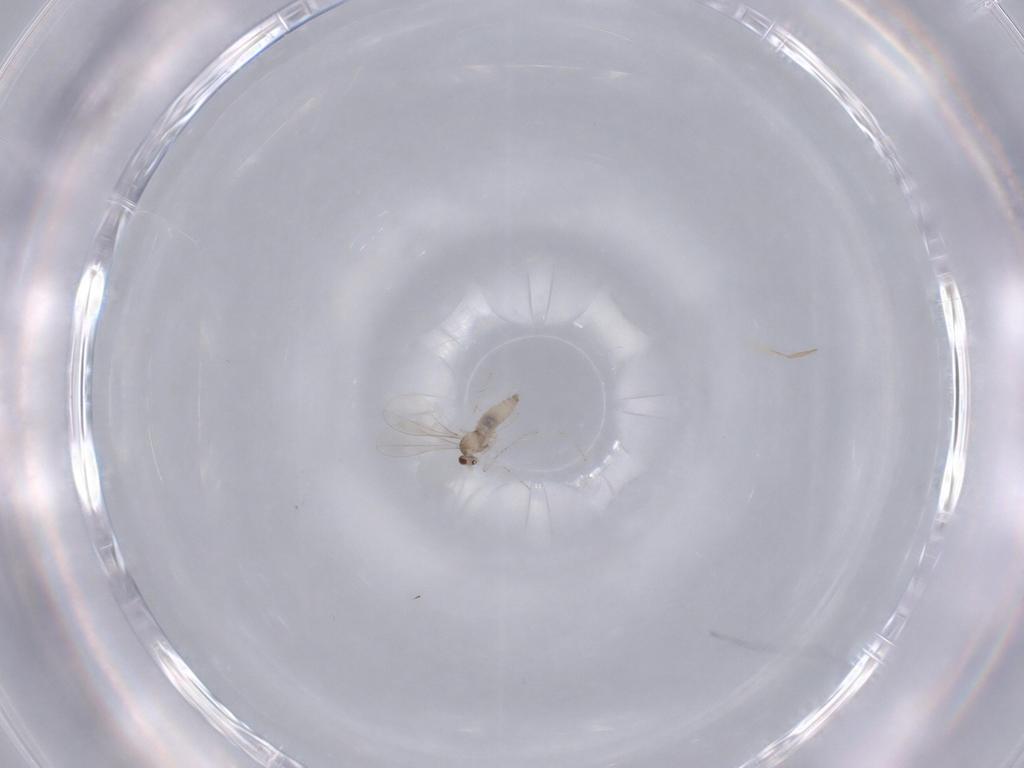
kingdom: Animalia
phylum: Arthropoda
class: Insecta
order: Diptera
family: Cecidomyiidae
